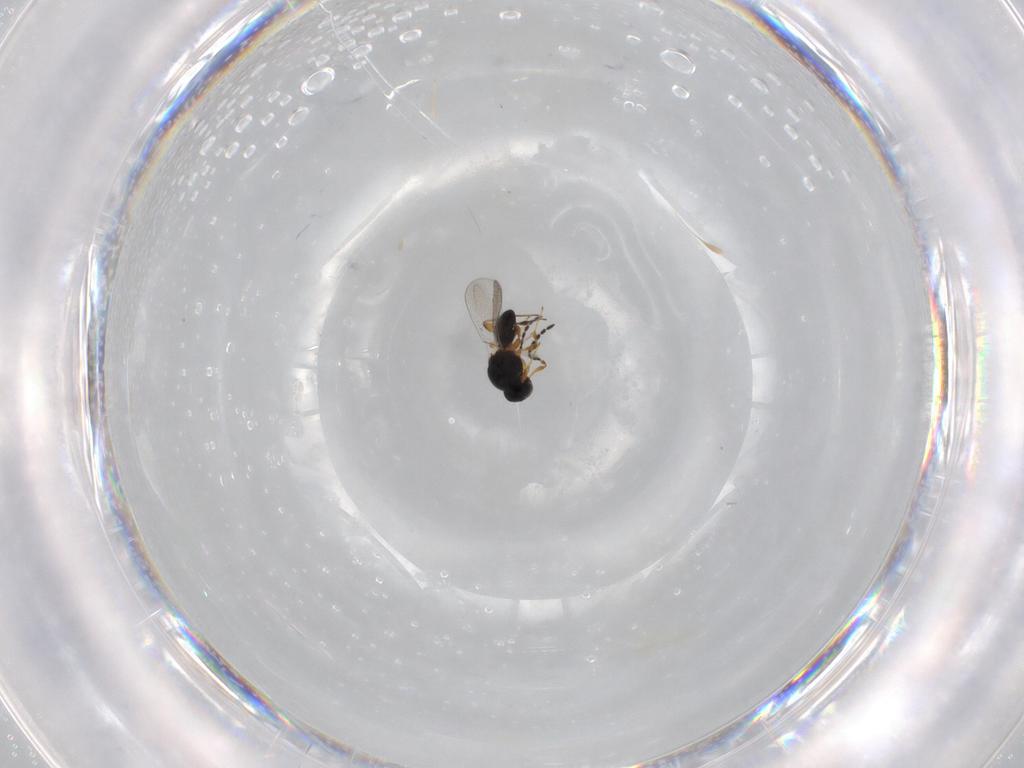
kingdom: Animalia
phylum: Arthropoda
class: Insecta
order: Hymenoptera
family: Platygastridae
